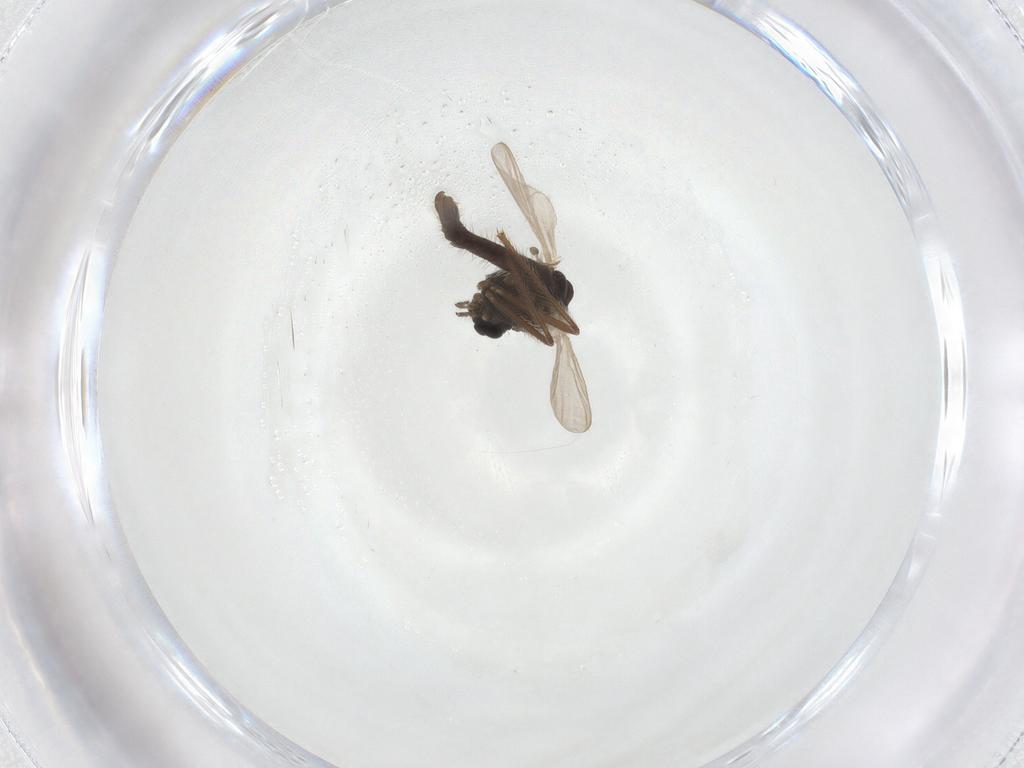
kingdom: Animalia
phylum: Arthropoda
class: Insecta
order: Diptera
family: Chironomidae
